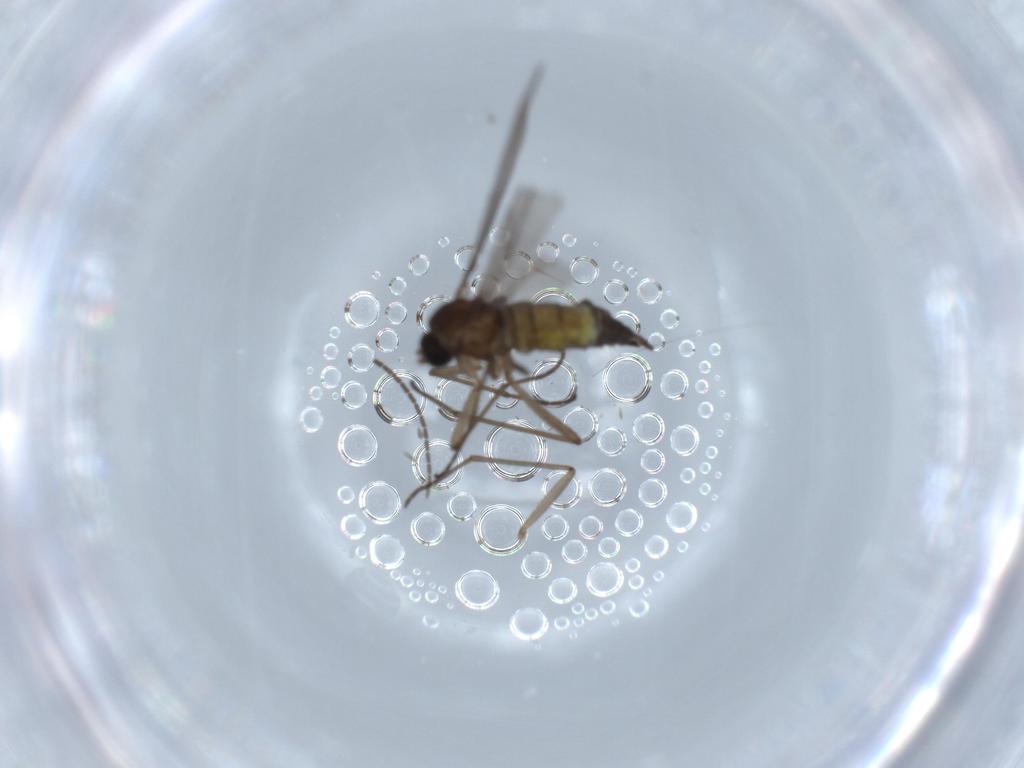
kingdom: Animalia
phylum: Arthropoda
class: Insecta
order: Diptera
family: Sciaridae
